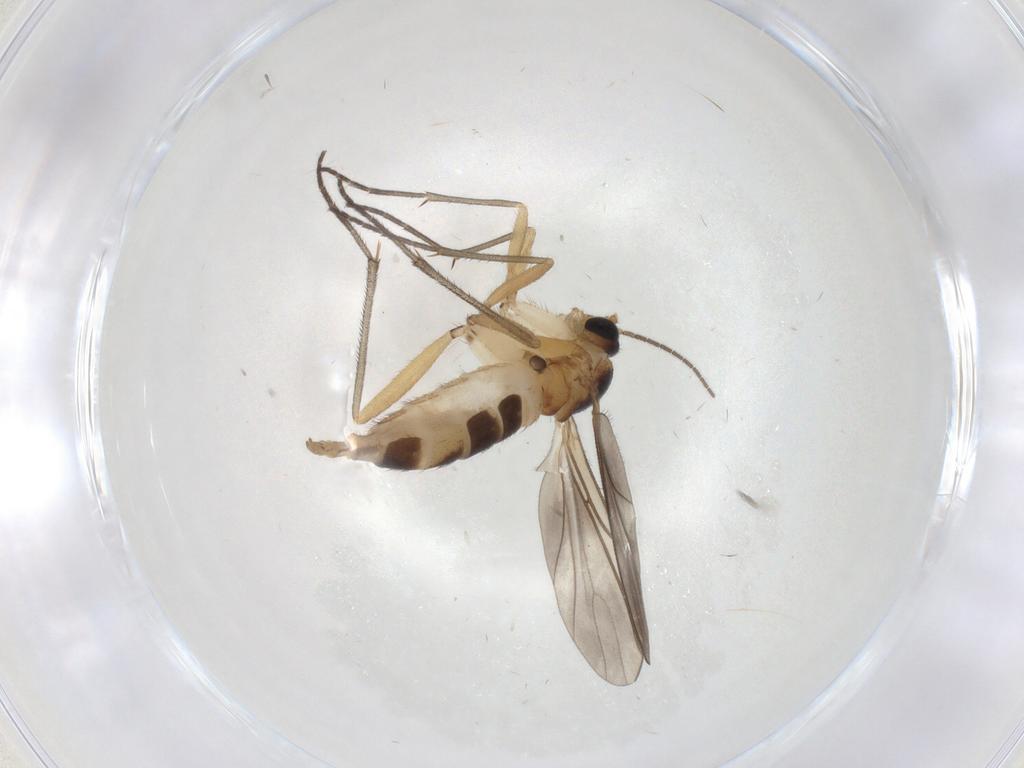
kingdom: Animalia
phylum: Arthropoda
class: Insecta
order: Diptera
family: Sciaridae
